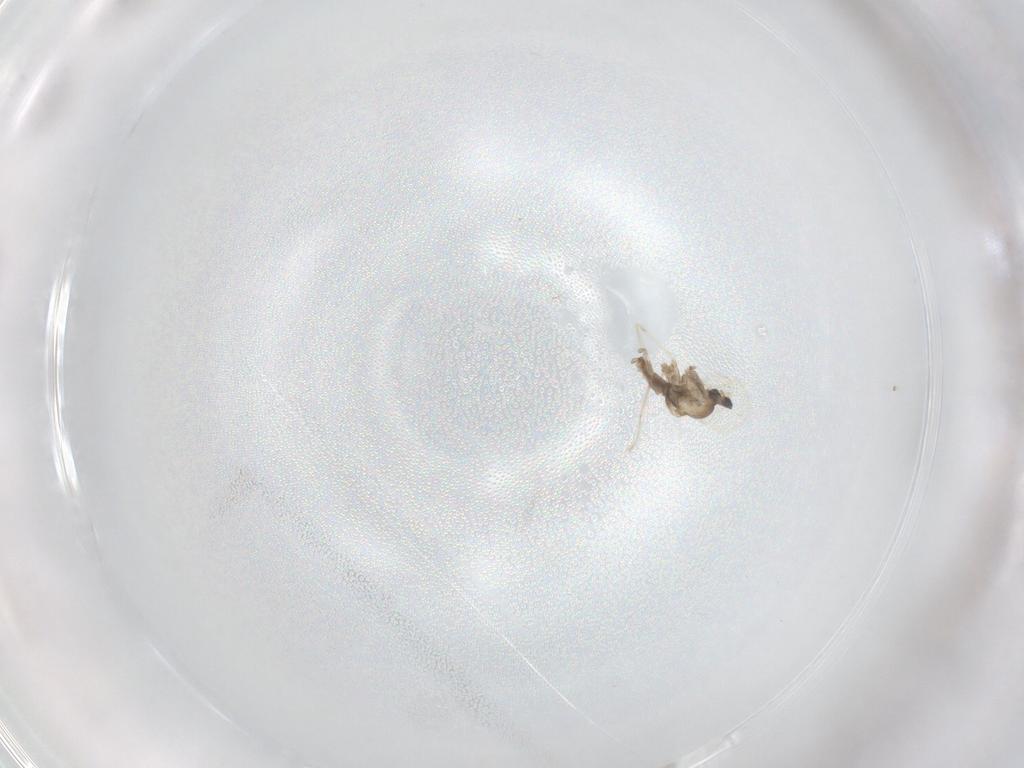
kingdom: Animalia
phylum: Arthropoda
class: Insecta
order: Diptera
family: Cecidomyiidae
